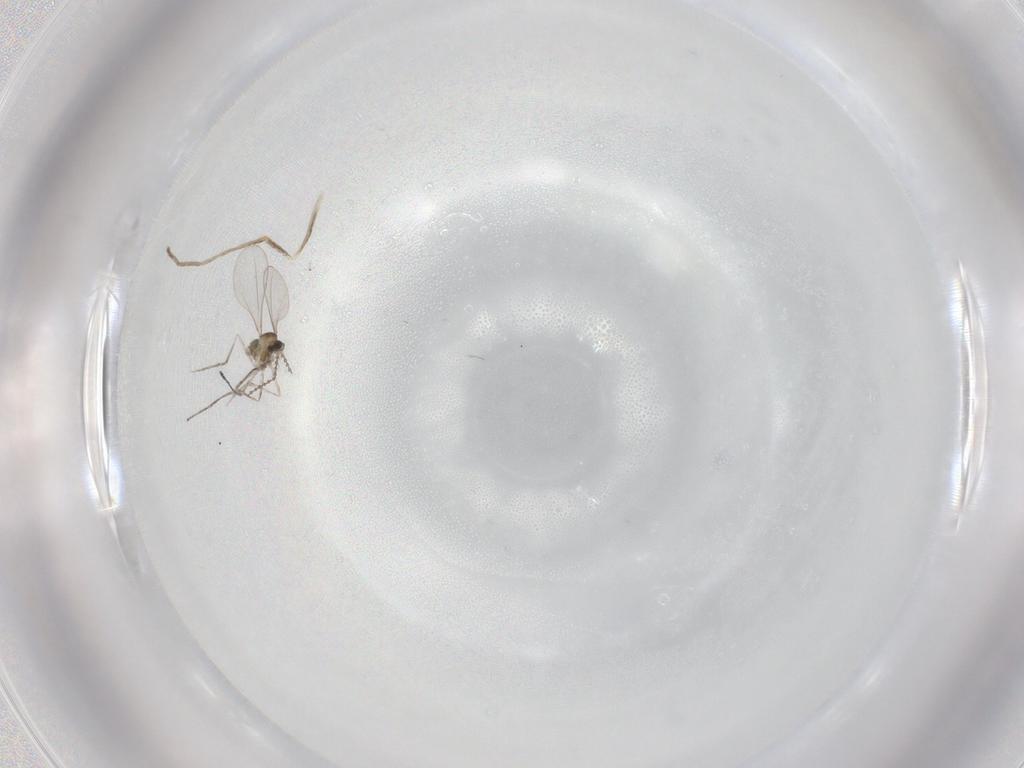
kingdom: Animalia
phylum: Arthropoda
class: Insecta
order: Diptera
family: Cecidomyiidae
